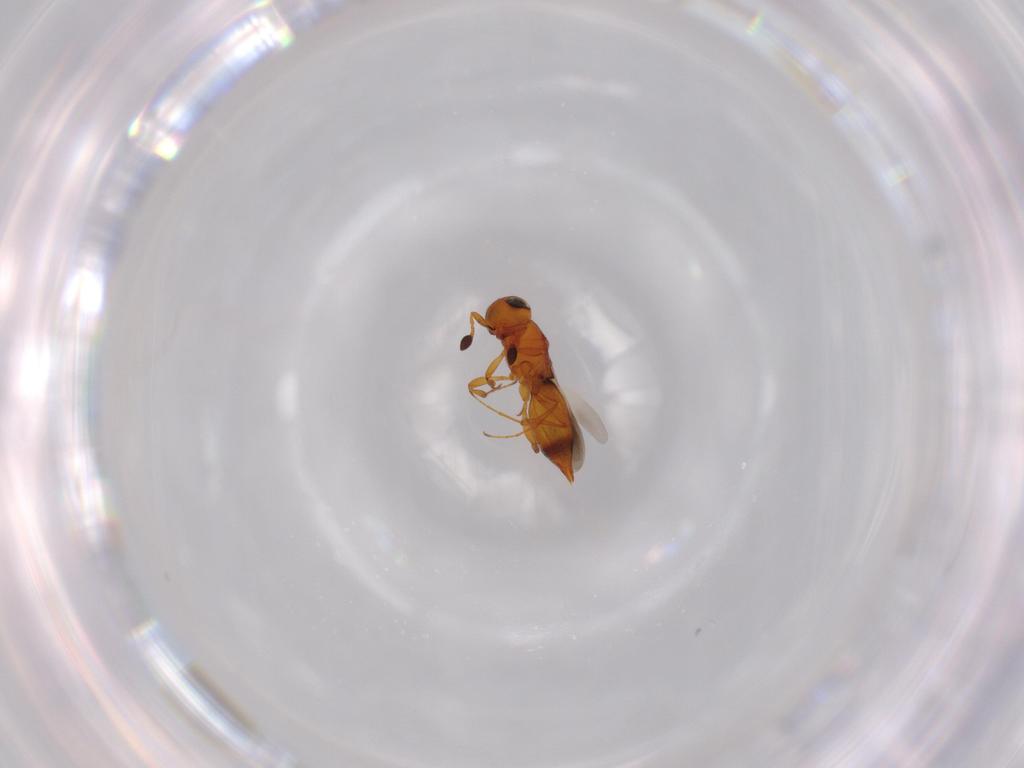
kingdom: Animalia
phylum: Arthropoda
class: Insecta
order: Hymenoptera
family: Platygastridae
